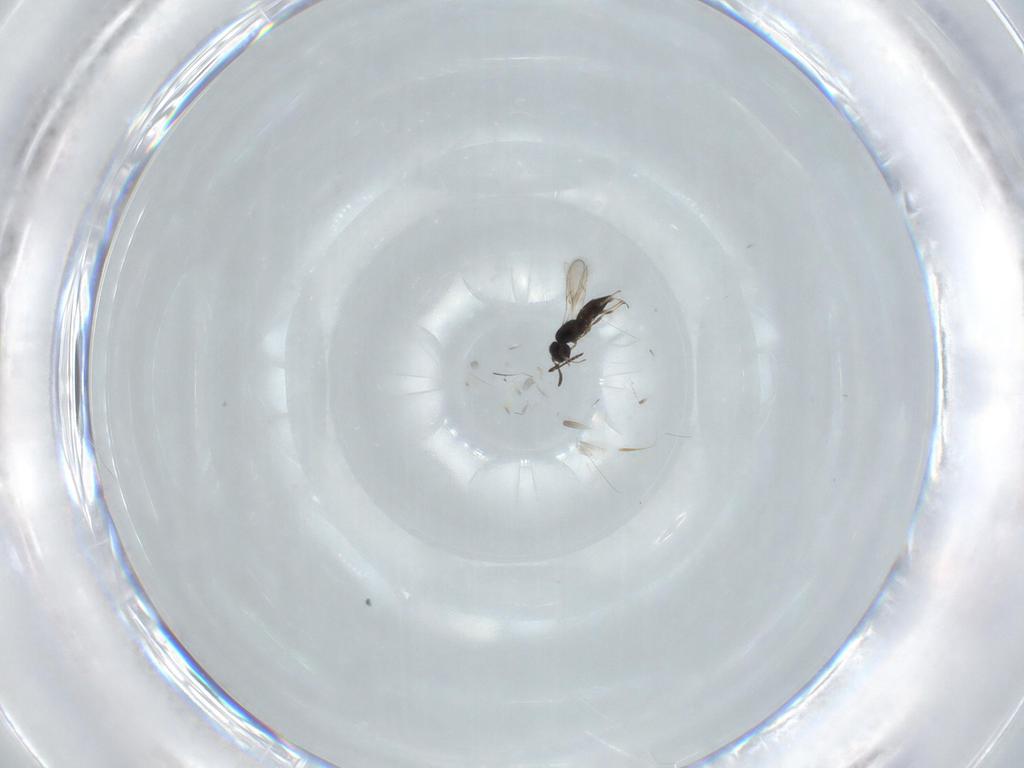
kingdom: Animalia
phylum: Arthropoda
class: Insecta
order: Hymenoptera
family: Scelionidae
